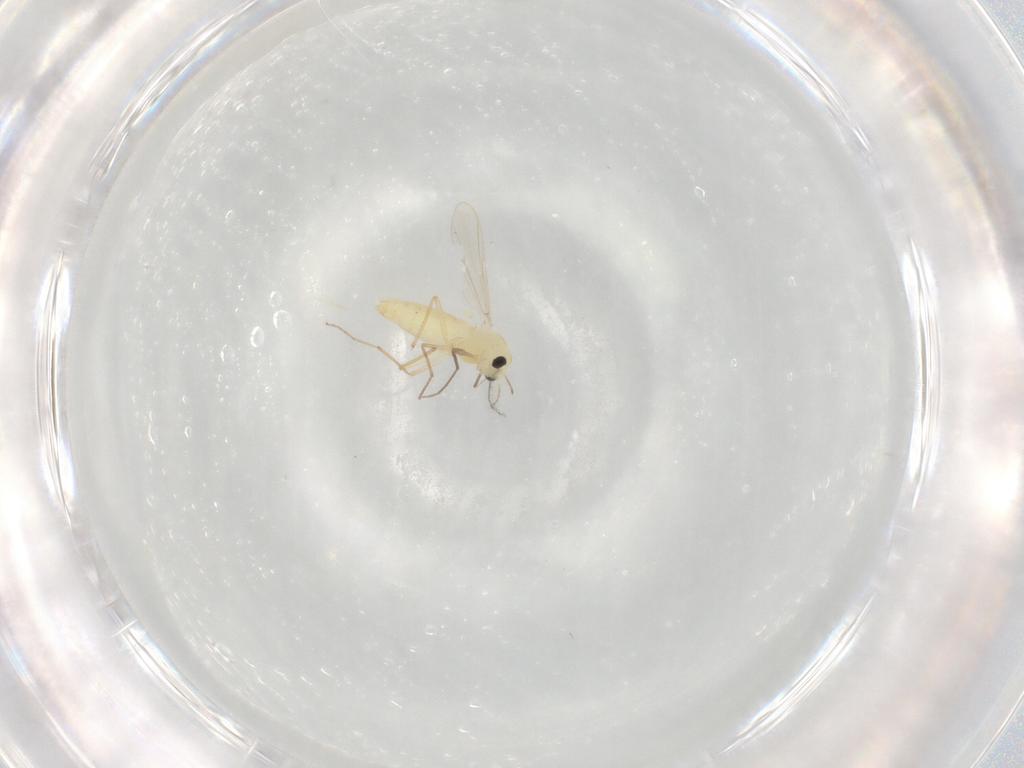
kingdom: Animalia
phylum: Arthropoda
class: Insecta
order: Diptera
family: Chironomidae
